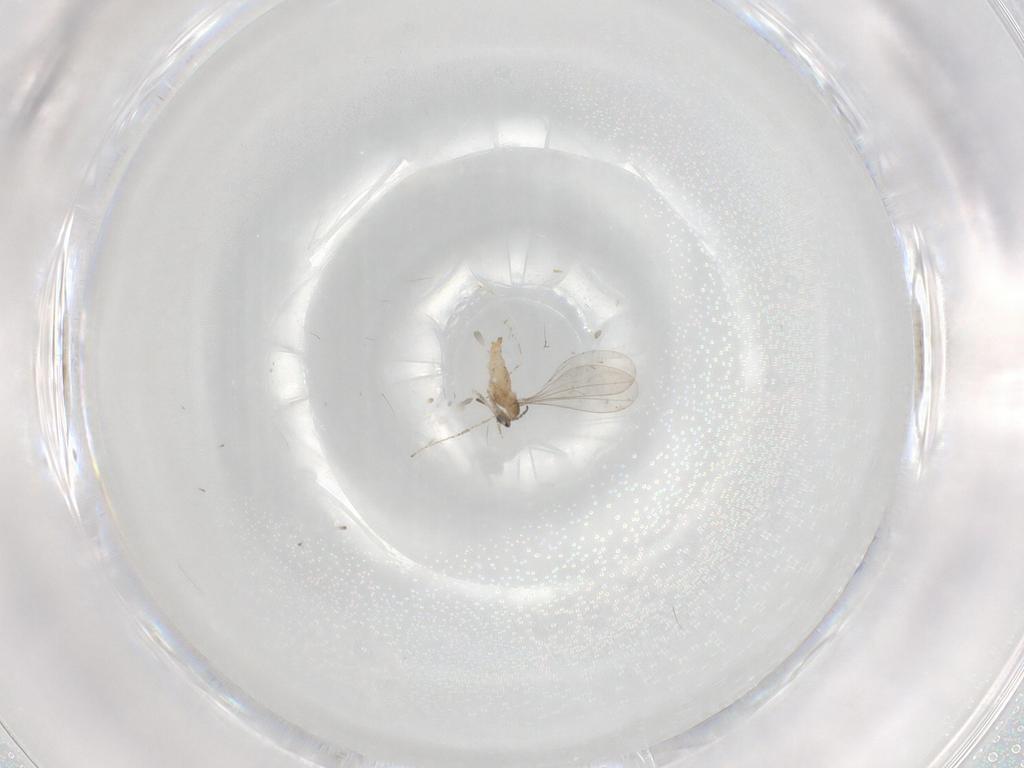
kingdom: Animalia
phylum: Arthropoda
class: Insecta
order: Diptera
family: Cecidomyiidae
